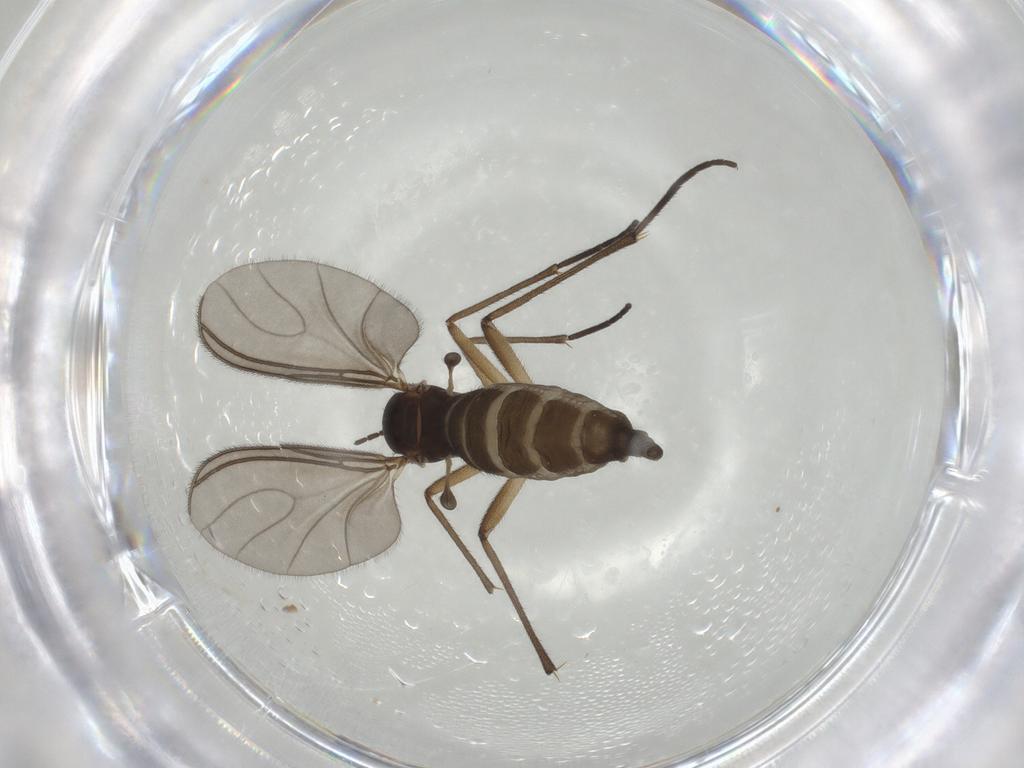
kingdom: Animalia
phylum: Arthropoda
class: Insecta
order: Diptera
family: Sciaridae
